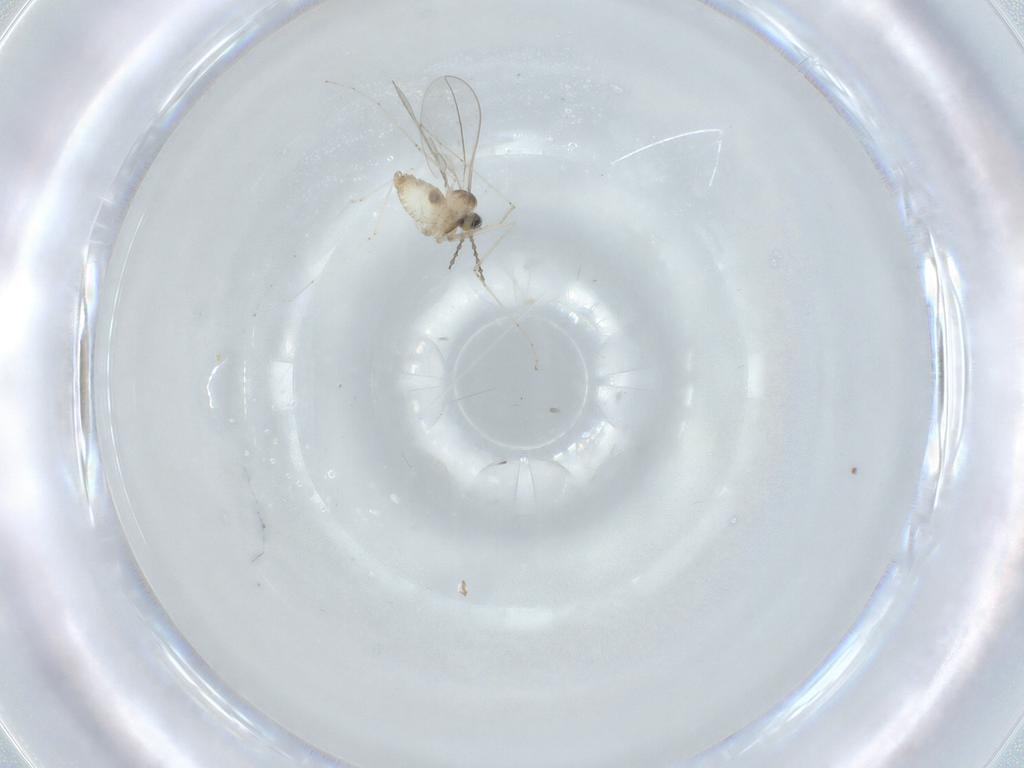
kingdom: Animalia
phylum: Arthropoda
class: Insecta
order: Diptera
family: Cecidomyiidae
